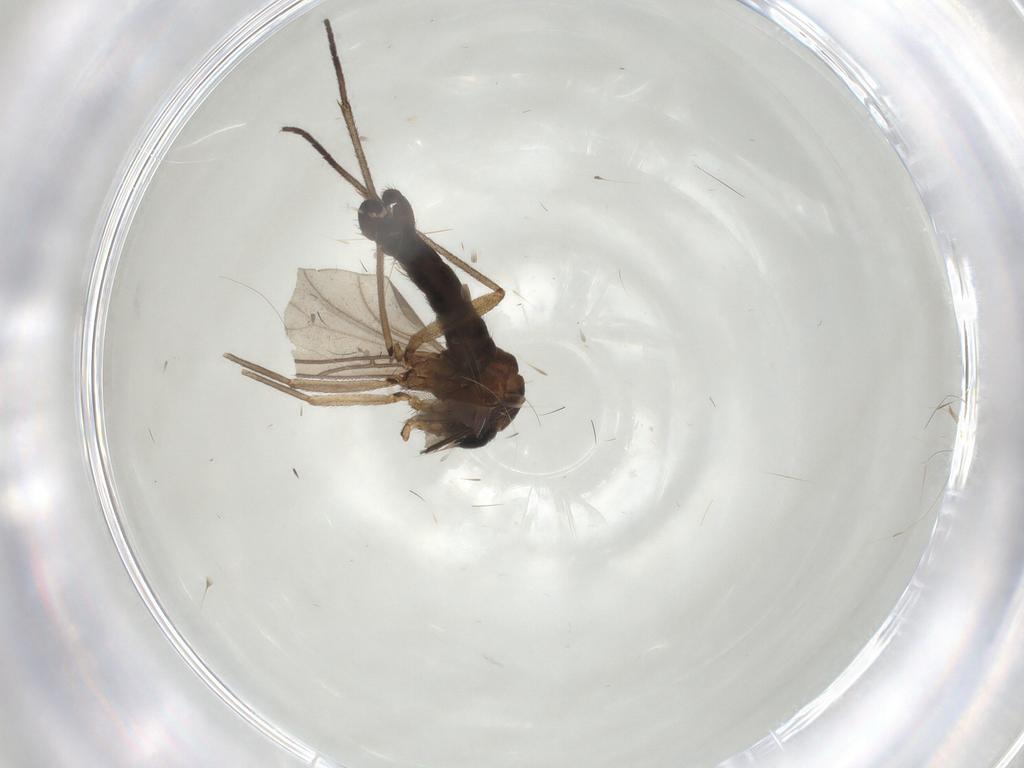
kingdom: Animalia
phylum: Arthropoda
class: Insecta
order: Diptera
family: Sciaridae
